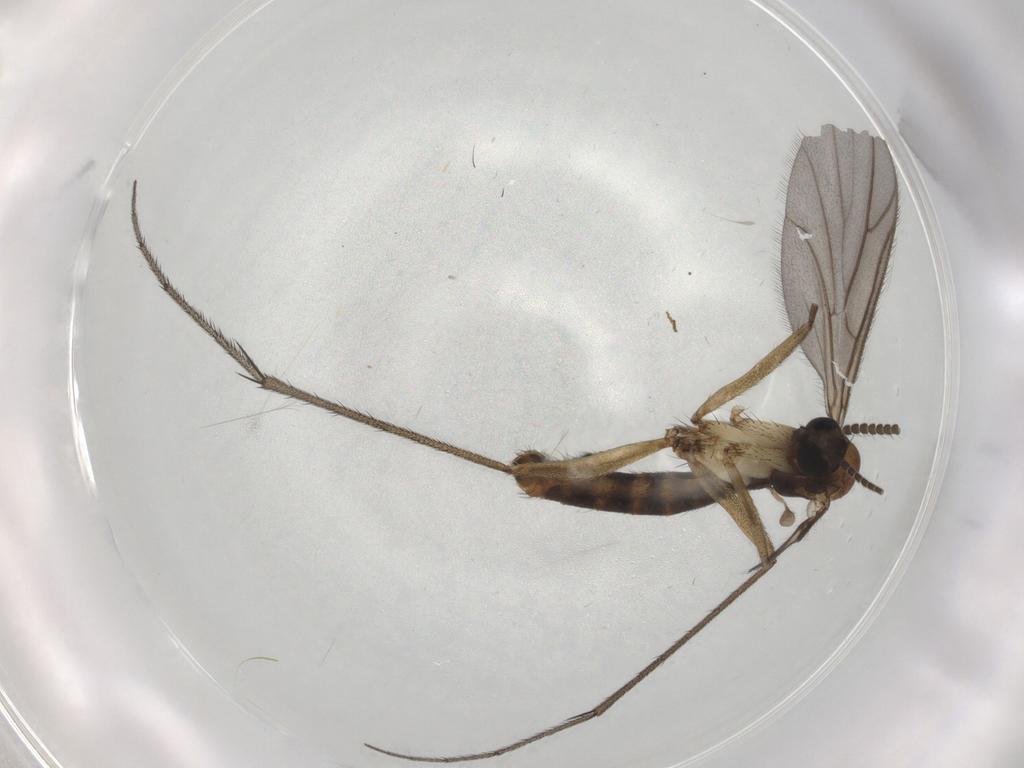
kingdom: Animalia
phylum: Arthropoda
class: Insecta
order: Diptera
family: Ditomyiidae
